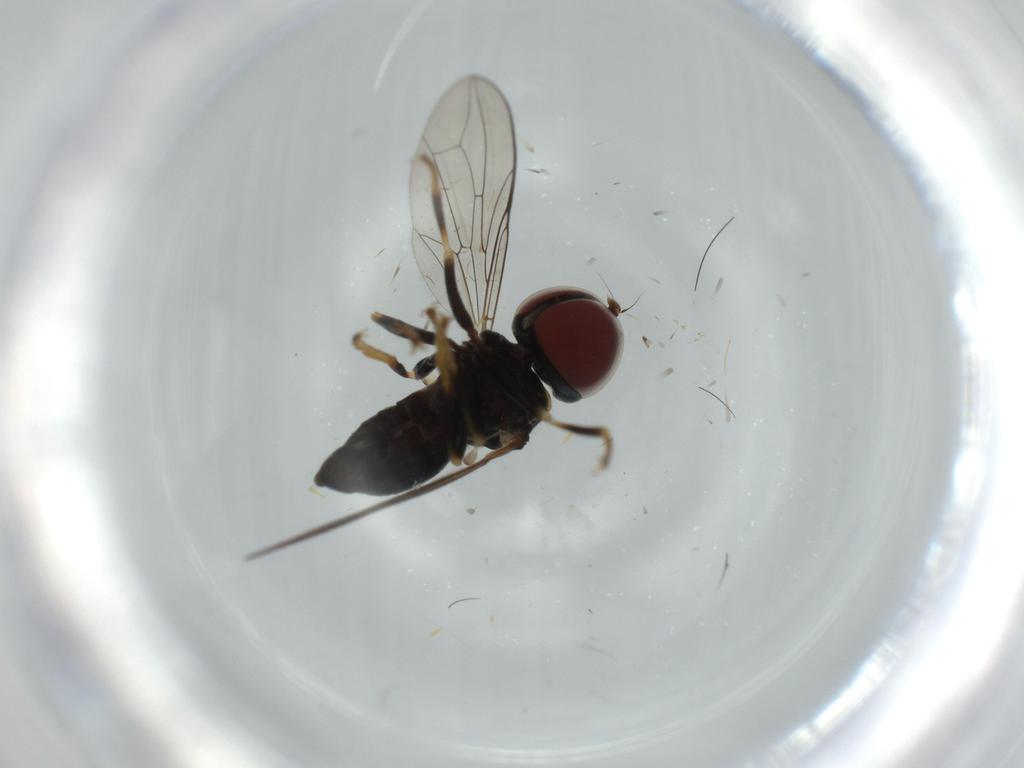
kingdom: Animalia
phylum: Arthropoda
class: Insecta
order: Diptera
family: Pipunculidae
